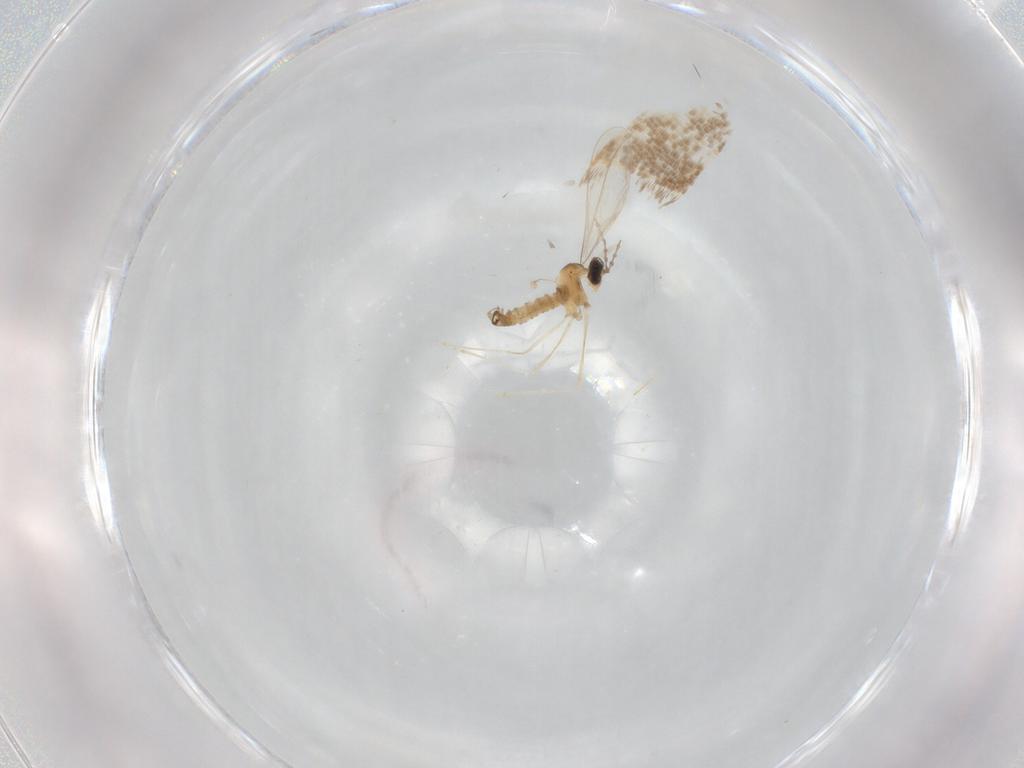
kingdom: Animalia
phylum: Arthropoda
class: Insecta
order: Diptera
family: Cecidomyiidae
